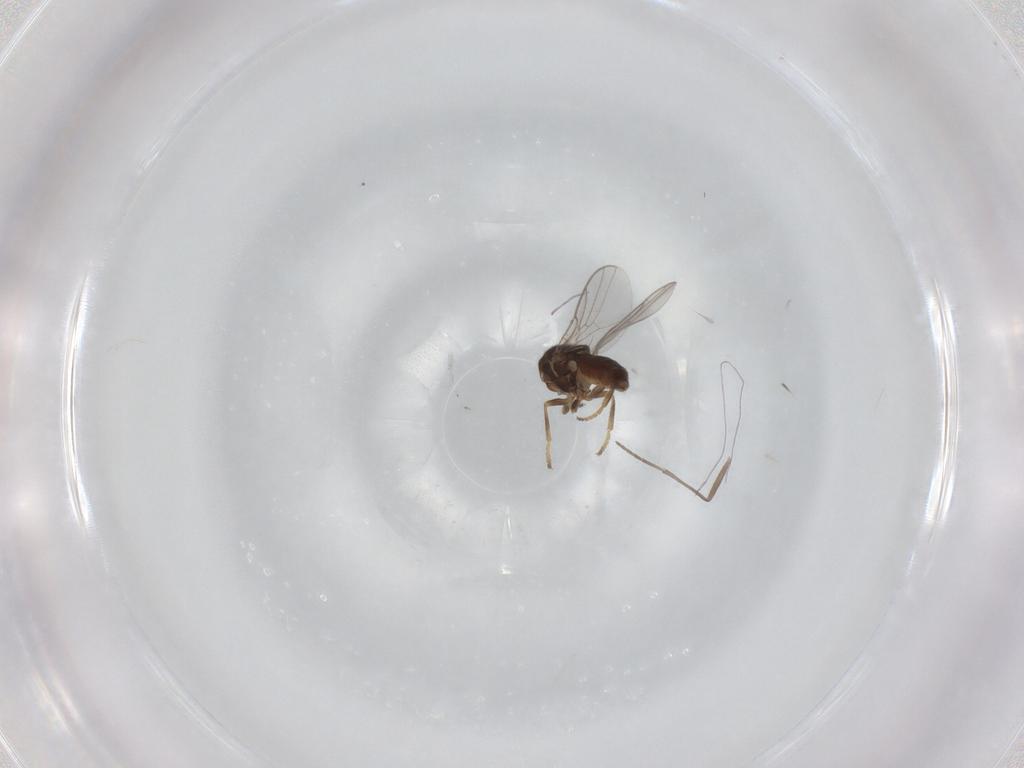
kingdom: Animalia
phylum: Arthropoda
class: Insecta
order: Diptera
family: Chloropidae
